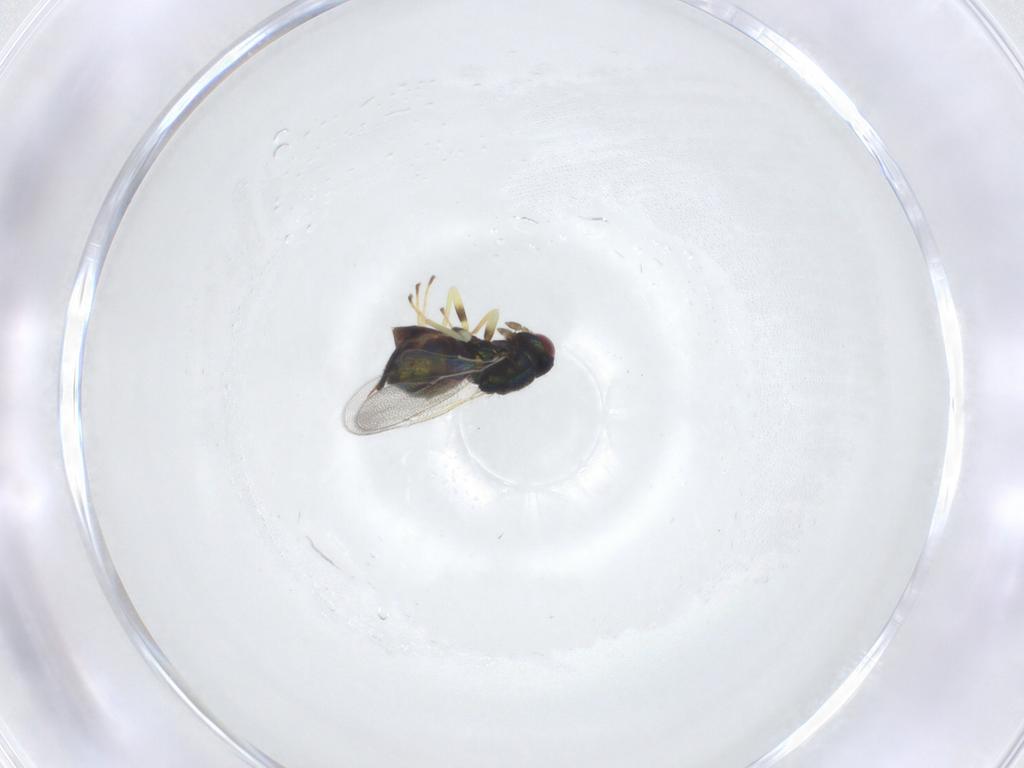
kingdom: Animalia
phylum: Arthropoda
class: Insecta
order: Hymenoptera
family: Eulophidae
